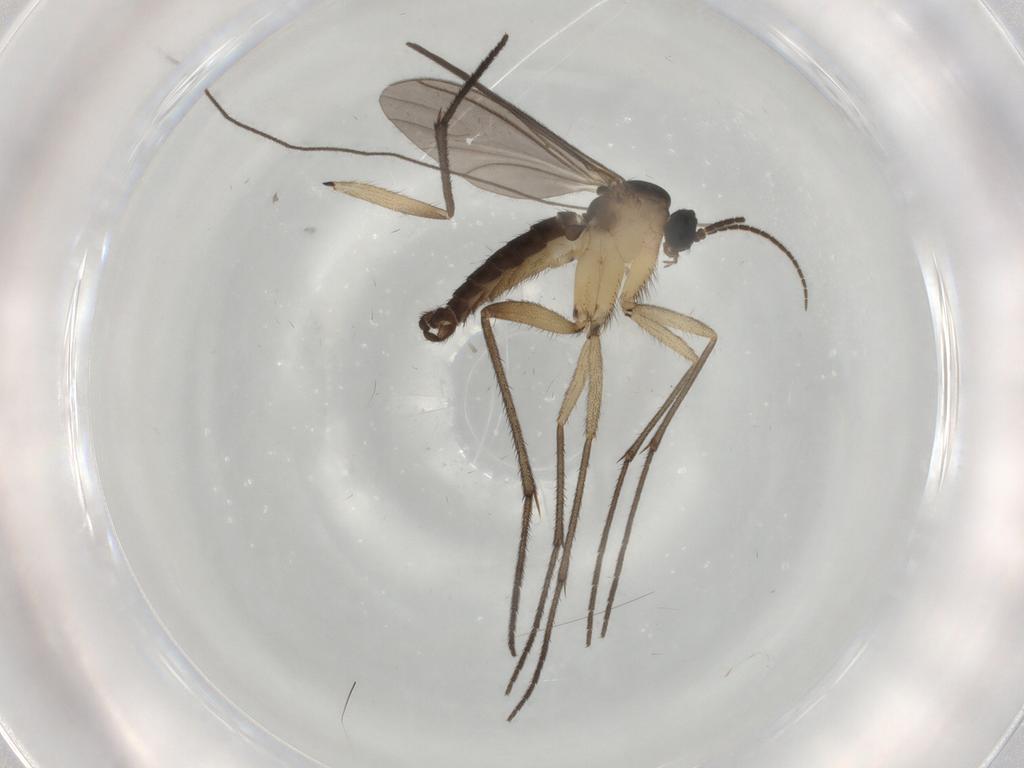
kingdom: Animalia
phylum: Arthropoda
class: Insecta
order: Diptera
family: Sciaridae
